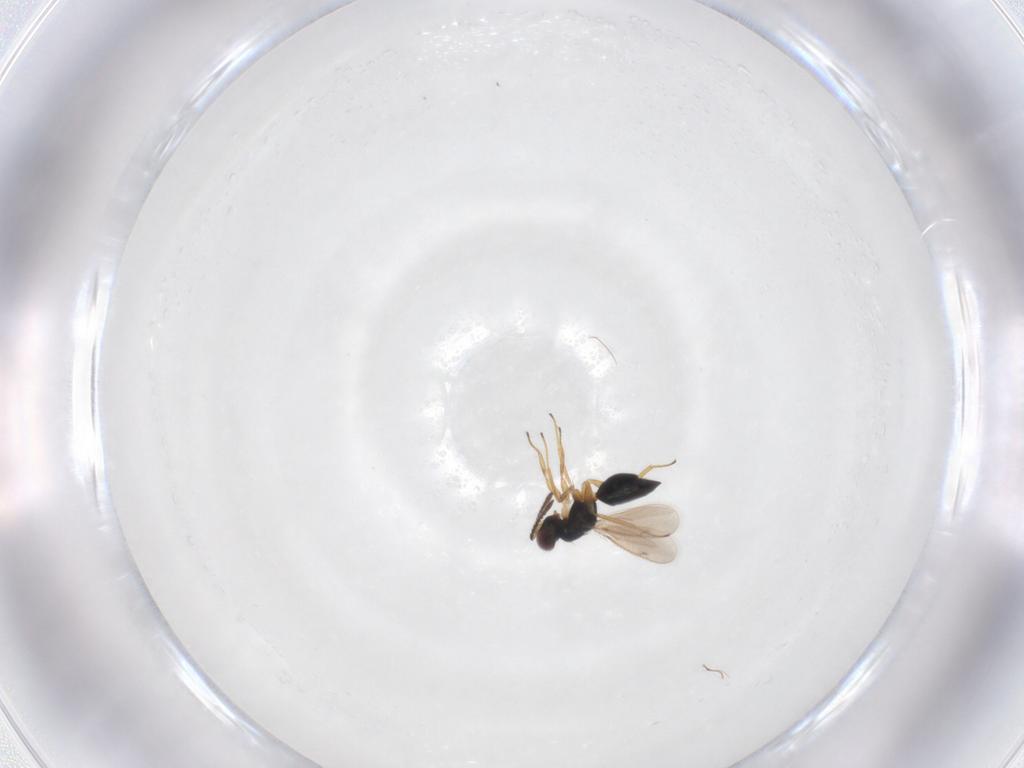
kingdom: Animalia
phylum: Arthropoda
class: Insecta
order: Hymenoptera
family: Tetracampidae
